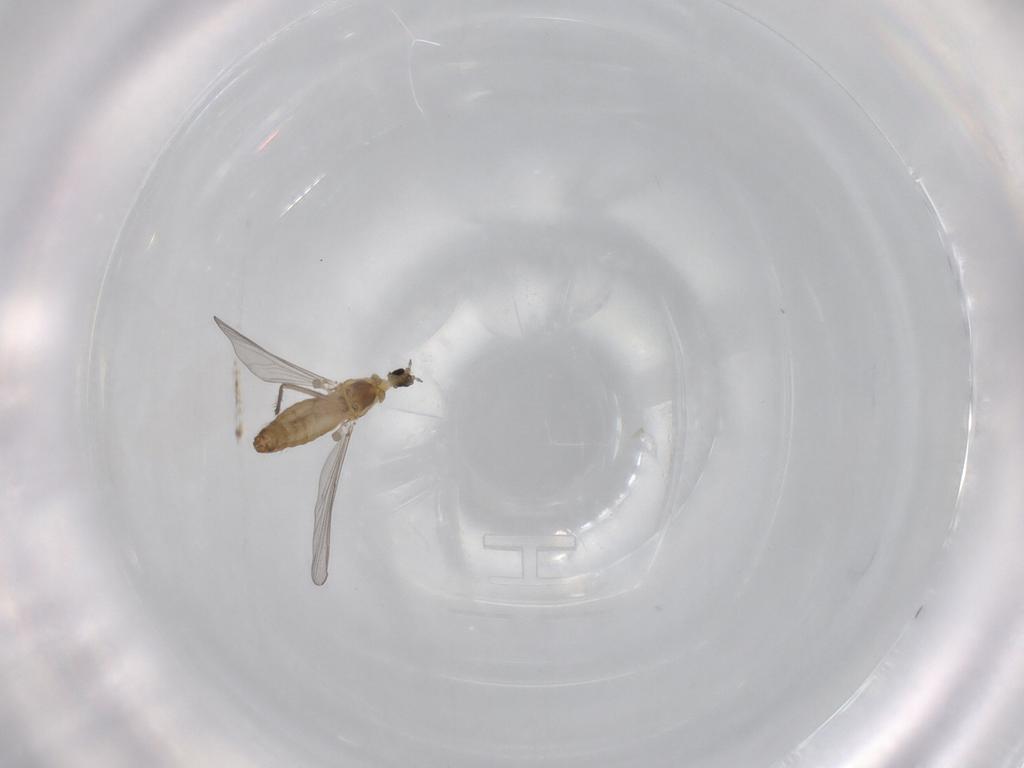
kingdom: Animalia
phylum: Arthropoda
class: Insecta
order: Diptera
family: Chironomidae
